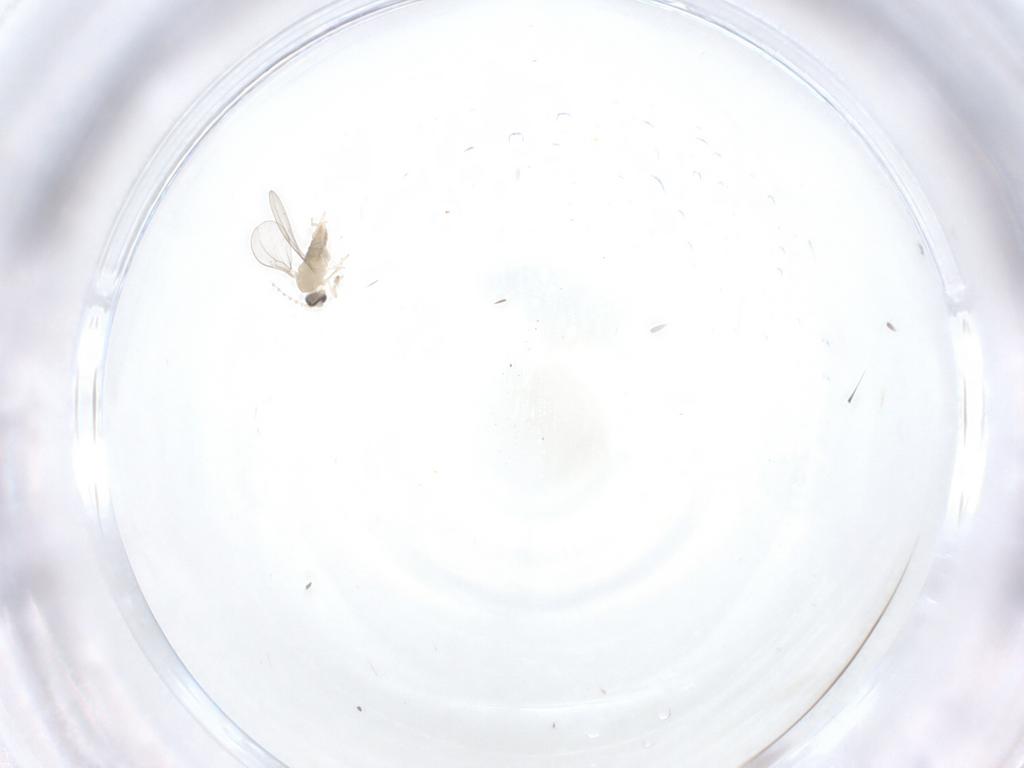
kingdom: Animalia
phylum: Arthropoda
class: Insecta
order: Diptera
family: Cecidomyiidae
